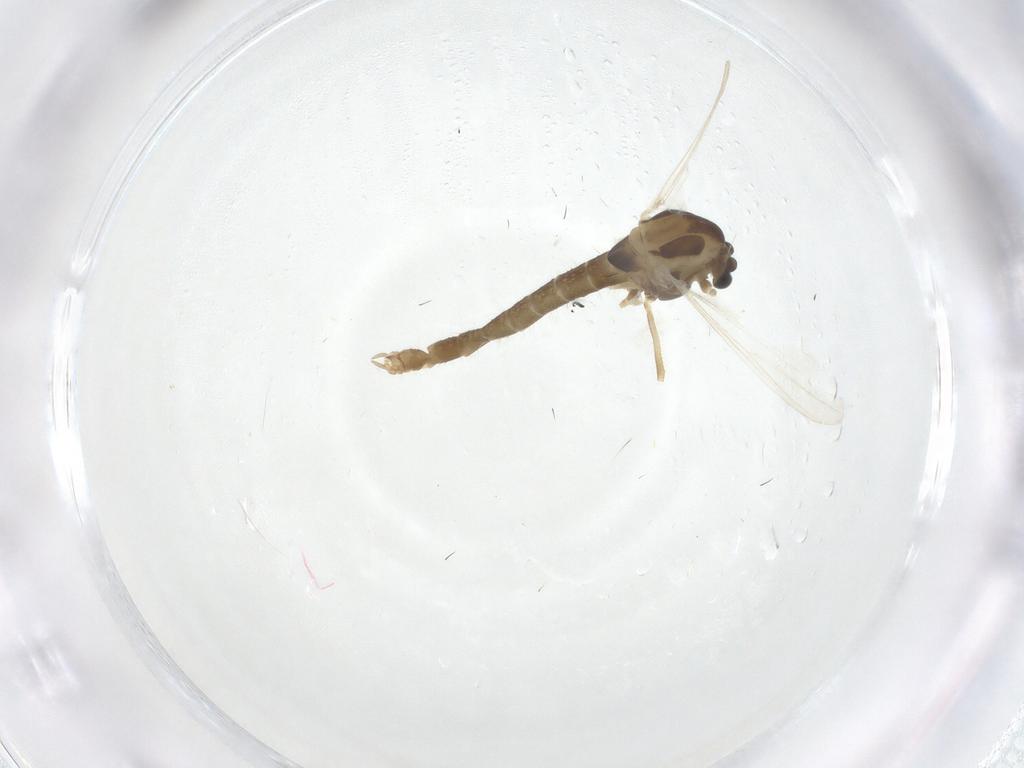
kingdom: Animalia
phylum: Arthropoda
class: Insecta
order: Diptera
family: Chironomidae
